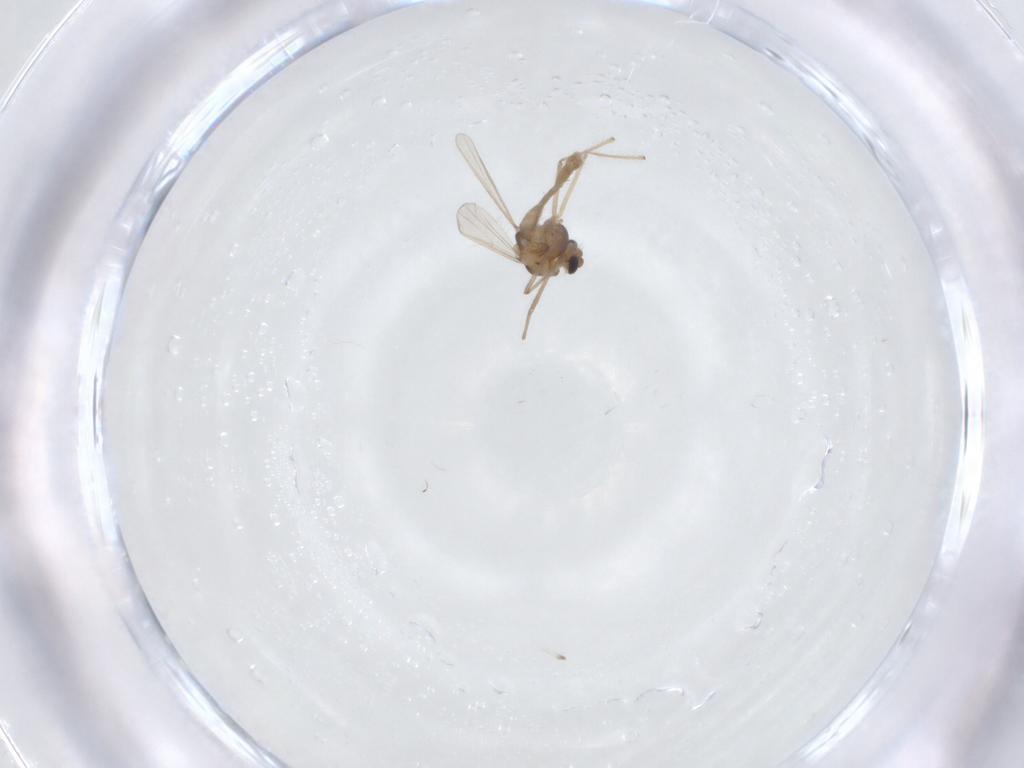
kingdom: Animalia
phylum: Arthropoda
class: Insecta
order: Diptera
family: Chironomidae
